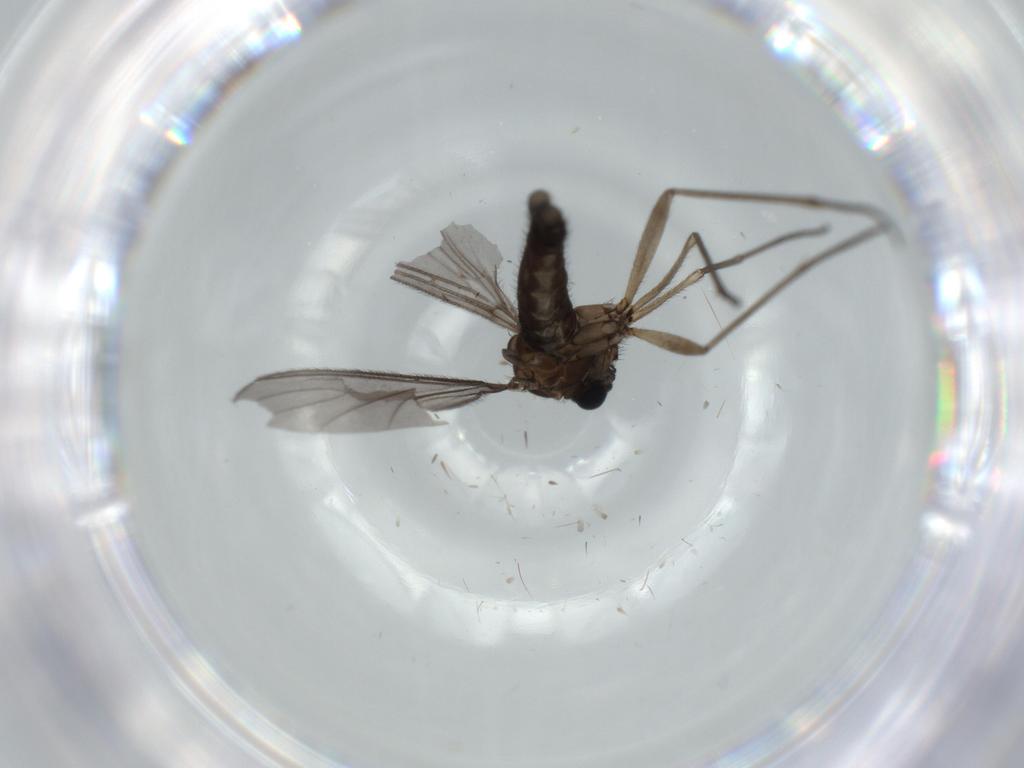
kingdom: Animalia
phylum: Arthropoda
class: Insecta
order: Diptera
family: Sciaridae
